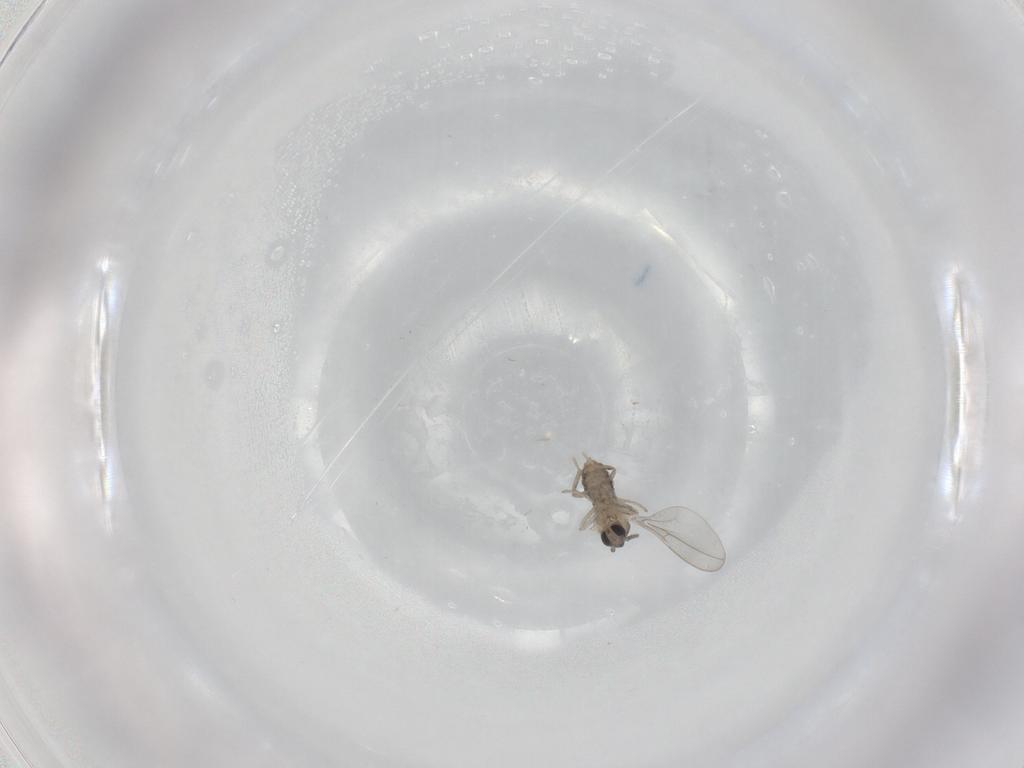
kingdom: Animalia
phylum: Arthropoda
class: Insecta
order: Diptera
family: Cecidomyiidae
